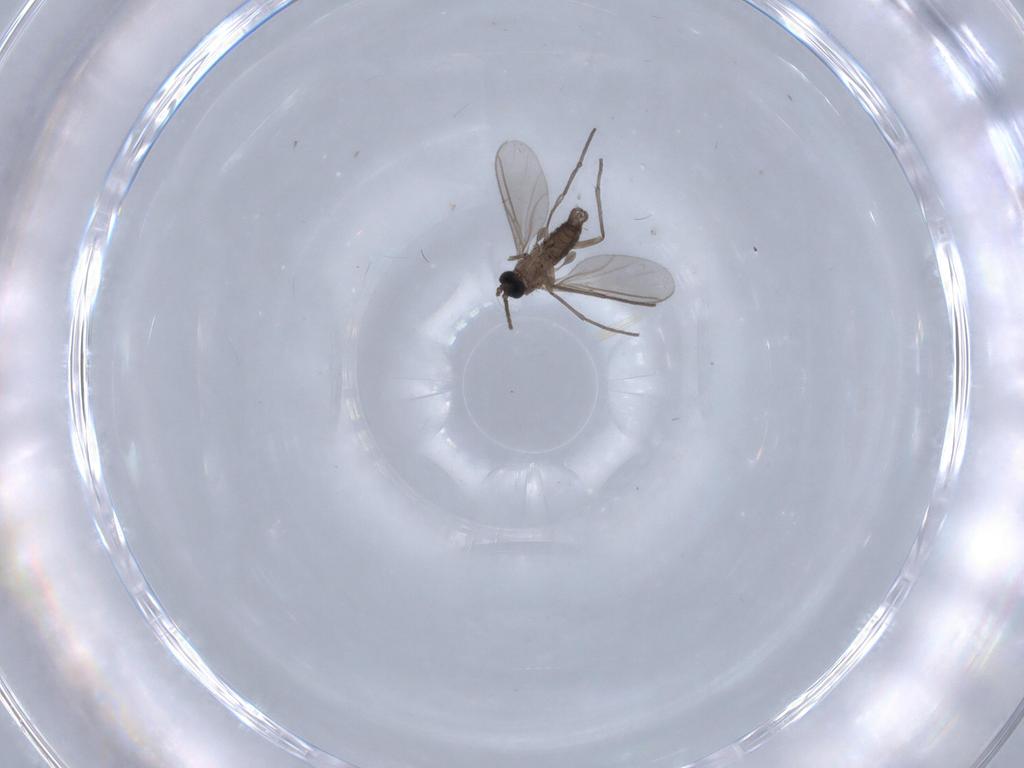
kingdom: Animalia
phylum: Arthropoda
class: Insecta
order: Diptera
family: Sciaridae
